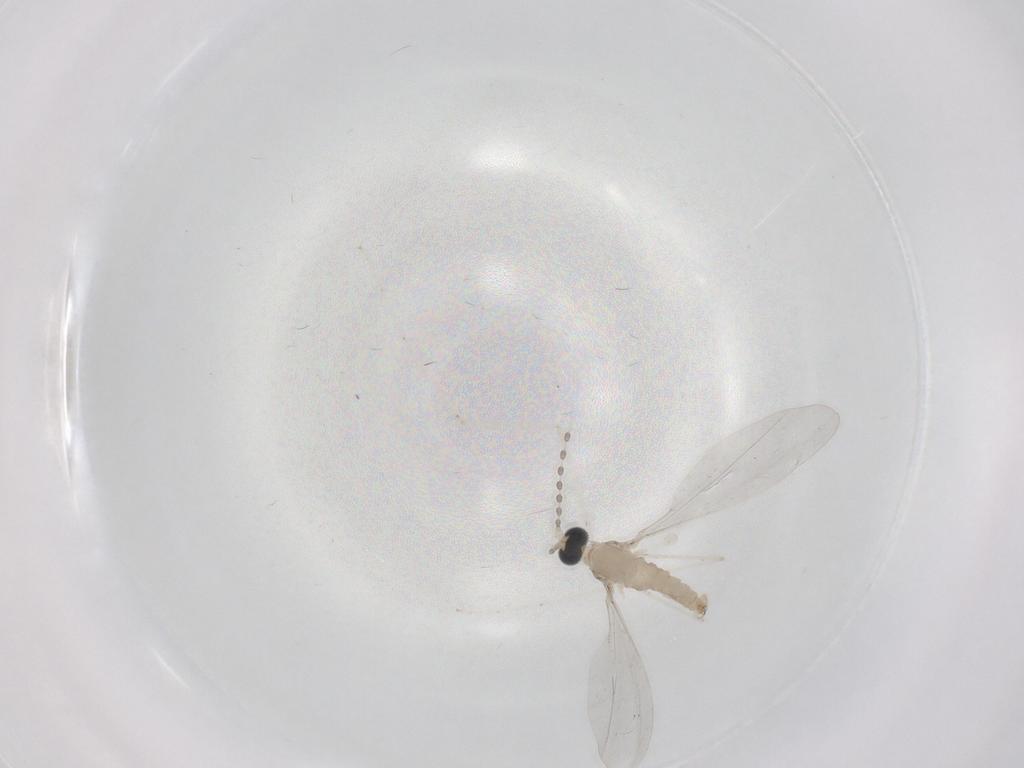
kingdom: Animalia
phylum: Arthropoda
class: Insecta
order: Diptera
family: Cecidomyiidae
